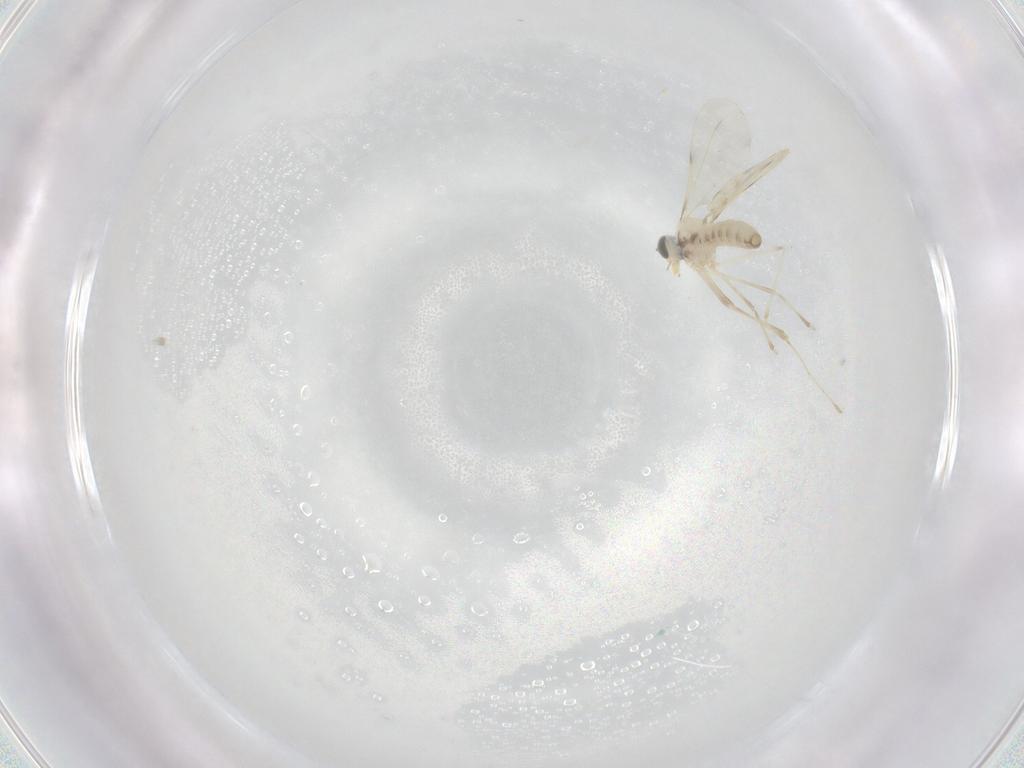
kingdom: Animalia
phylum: Arthropoda
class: Insecta
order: Diptera
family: Cecidomyiidae
